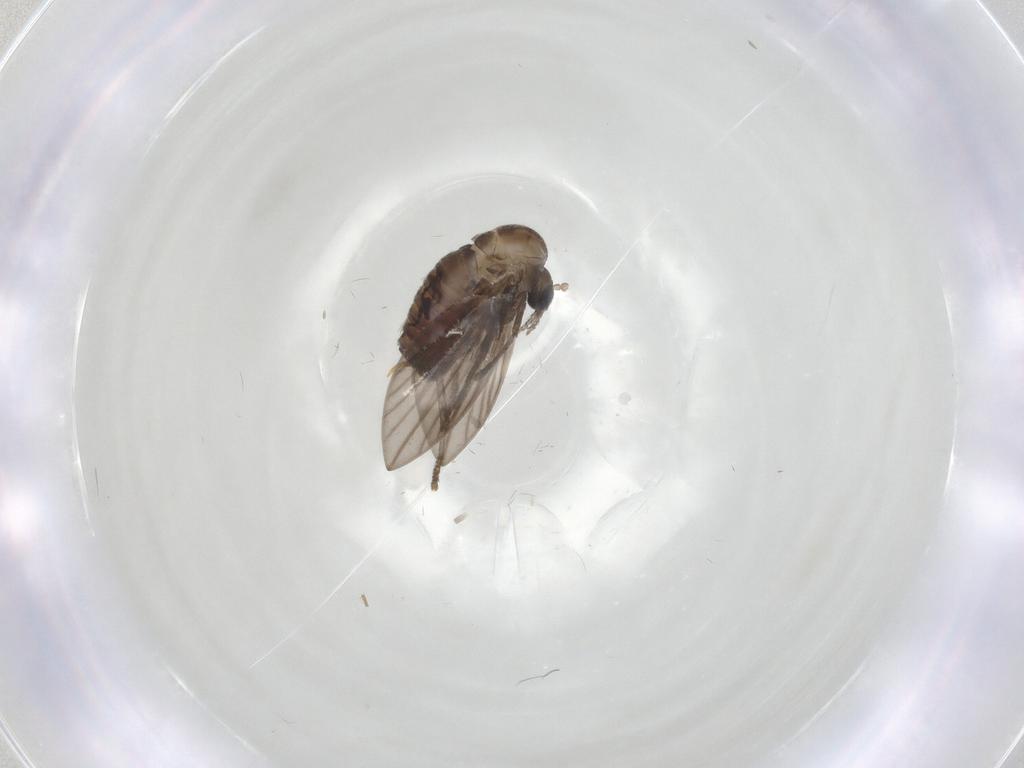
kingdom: Animalia
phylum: Arthropoda
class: Insecta
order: Diptera
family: Psychodidae
